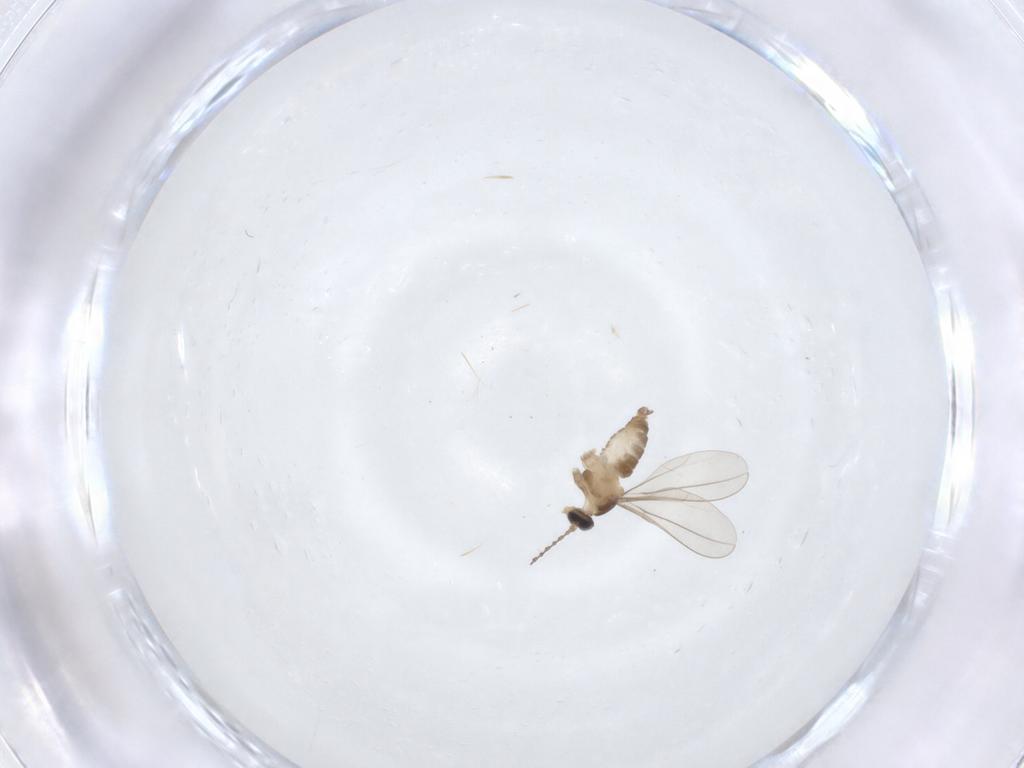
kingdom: Animalia
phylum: Arthropoda
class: Insecta
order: Diptera
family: Cecidomyiidae
